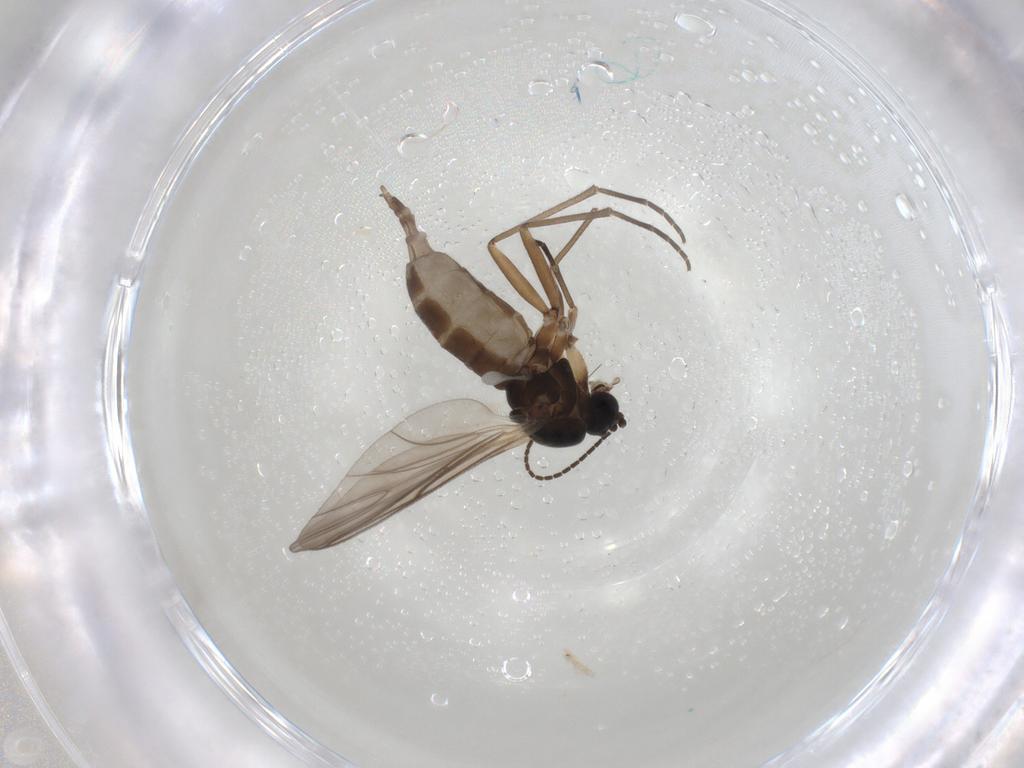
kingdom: Animalia
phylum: Arthropoda
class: Insecta
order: Diptera
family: Sciaridae
